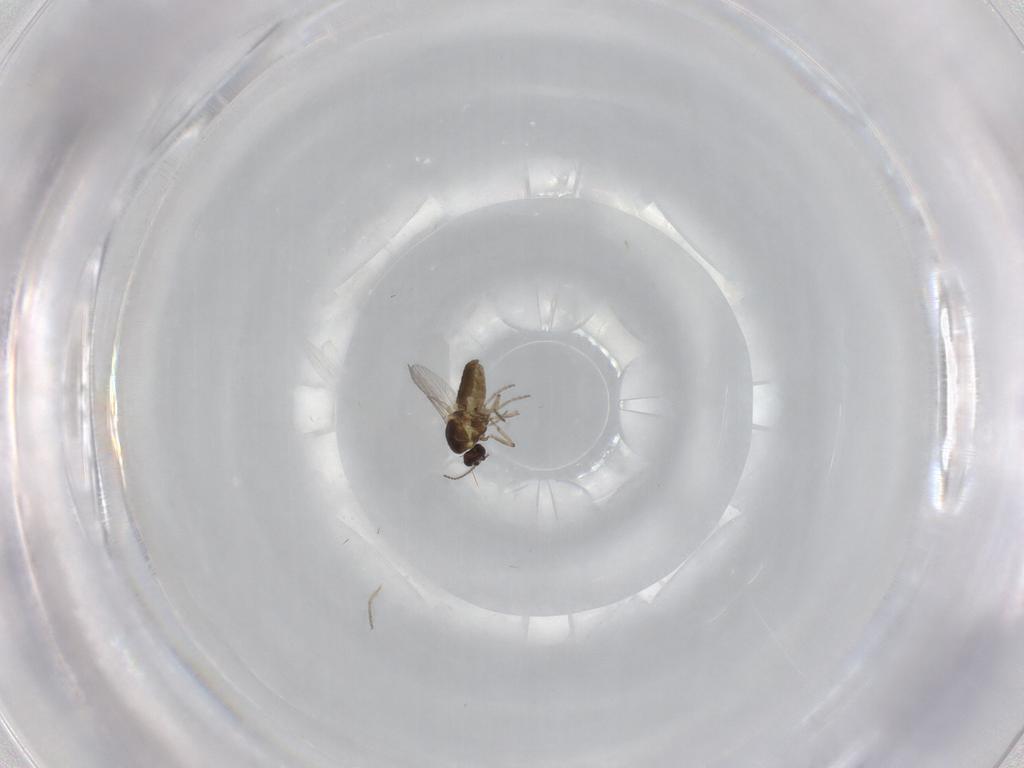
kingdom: Animalia
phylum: Arthropoda
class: Insecta
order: Diptera
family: Ceratopogonidae
